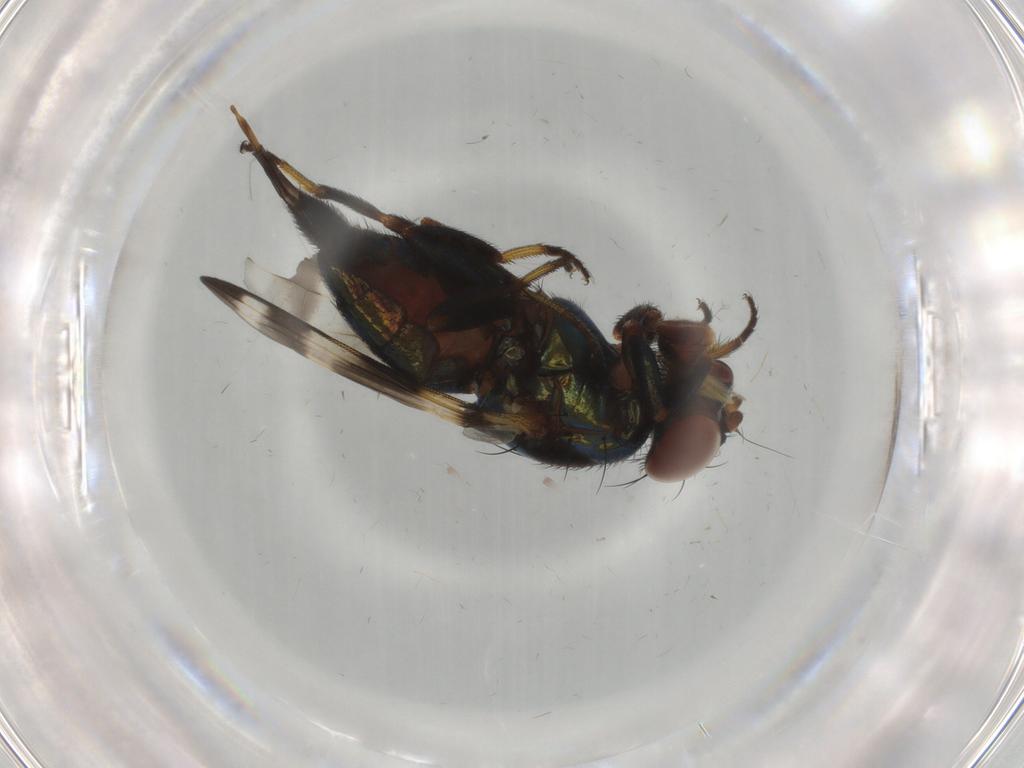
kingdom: Animalia
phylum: Arthropoda
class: Insecta
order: Diptera
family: Ulidiidae
